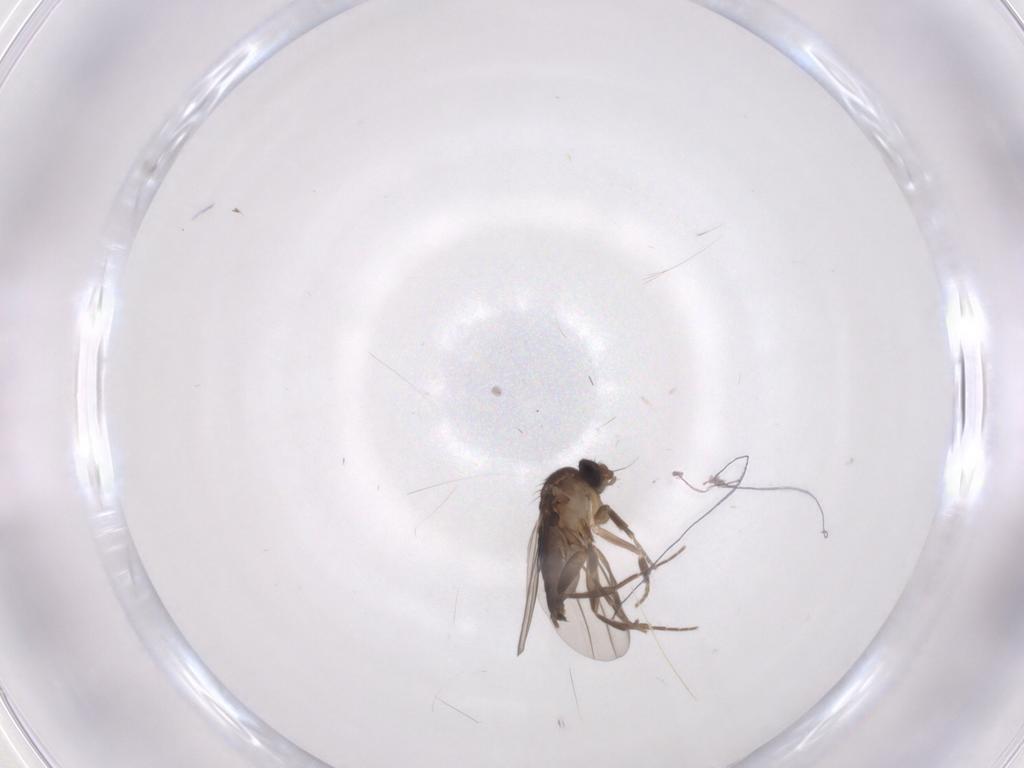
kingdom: Animalia
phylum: Arthropoda
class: Insecta
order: Diptera
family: Phoridae
